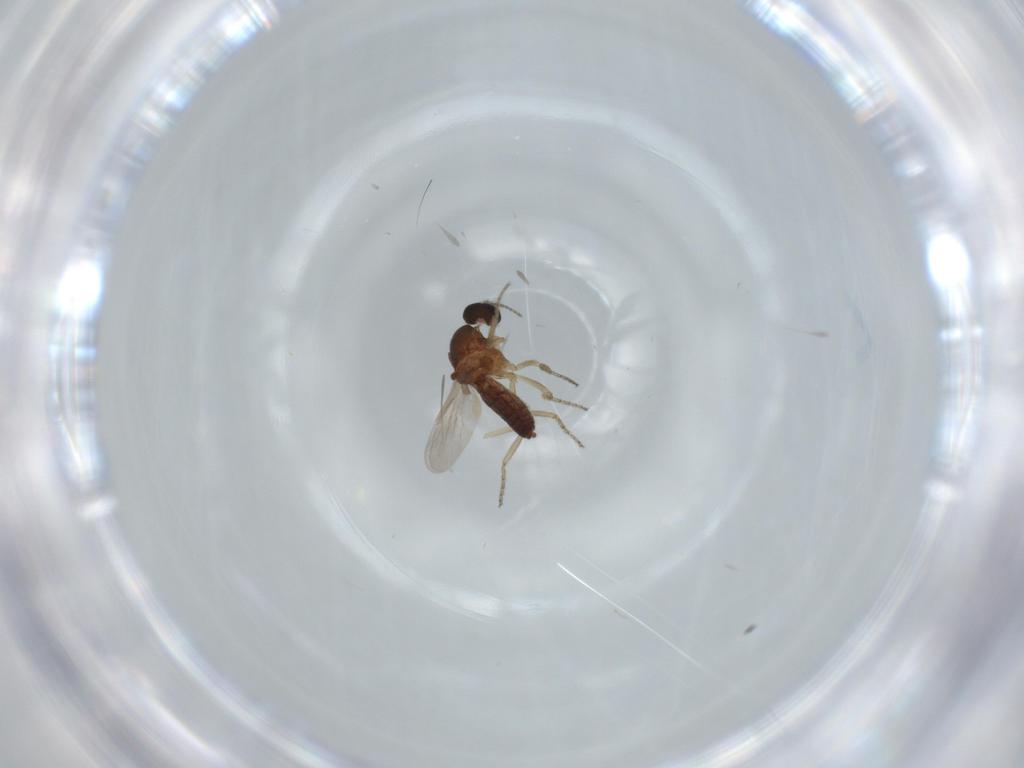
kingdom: Animalia
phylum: Arthropoda
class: Insecta
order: Diptera
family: Ceratopogonidae
